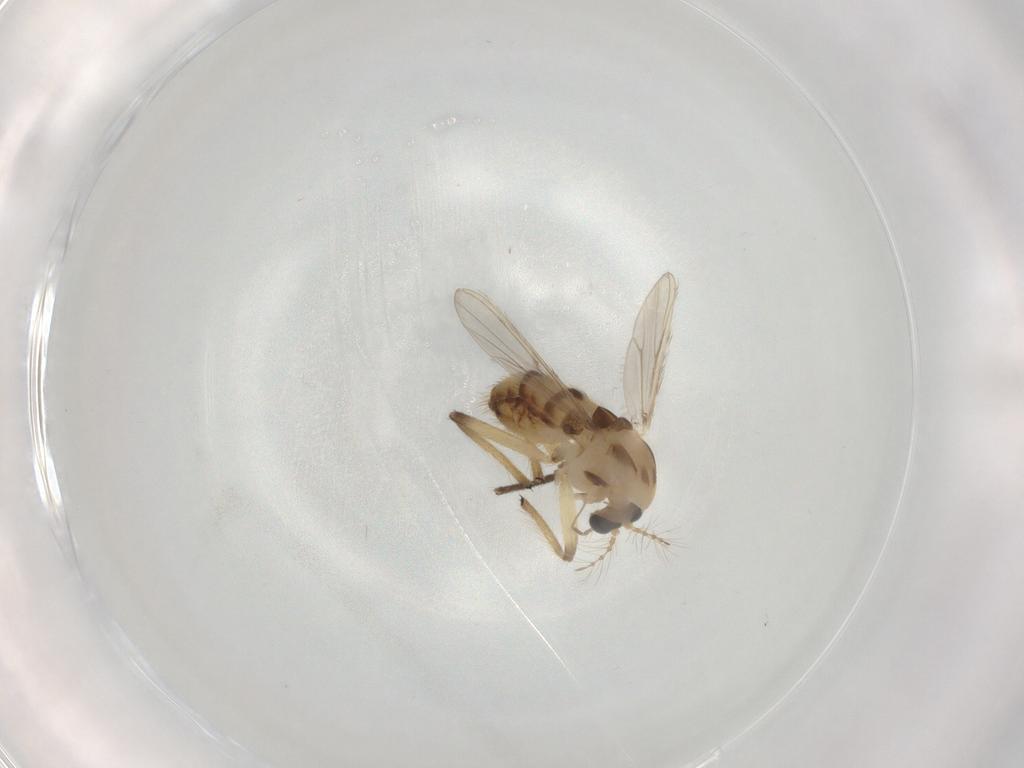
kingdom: Animalia
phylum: Arthropoda
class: Insecta
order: Diptera
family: Chironomidae
